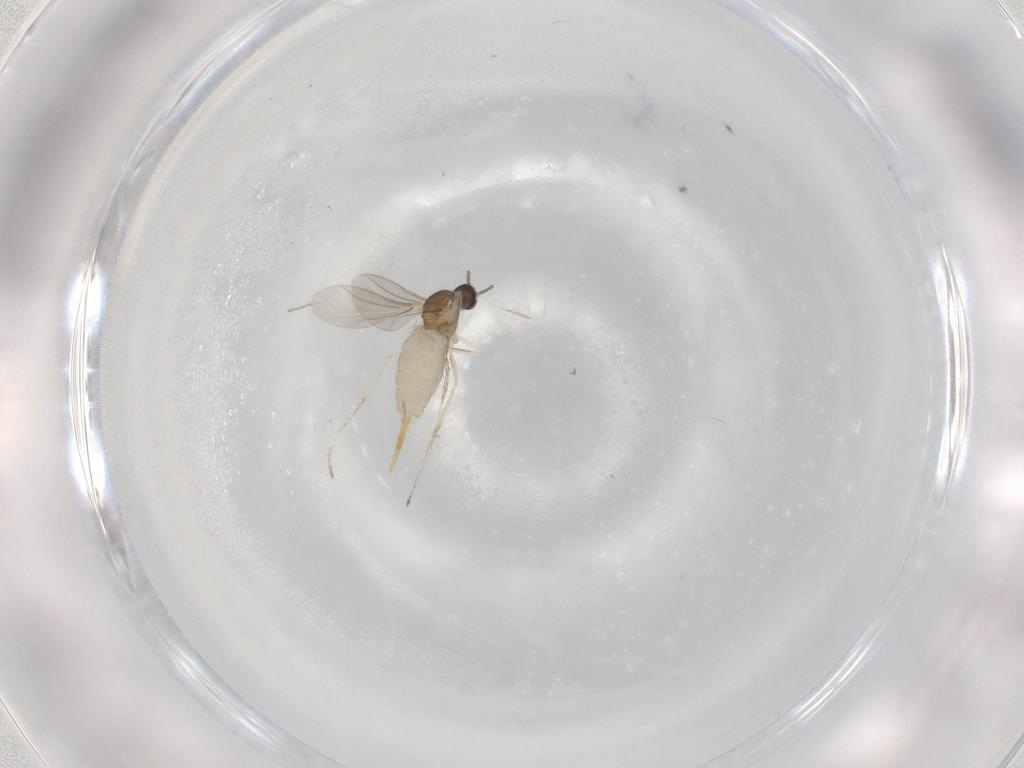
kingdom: Animalia
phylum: Arthropoda
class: Insecta
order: Diptera
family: Cecidomyiidae
